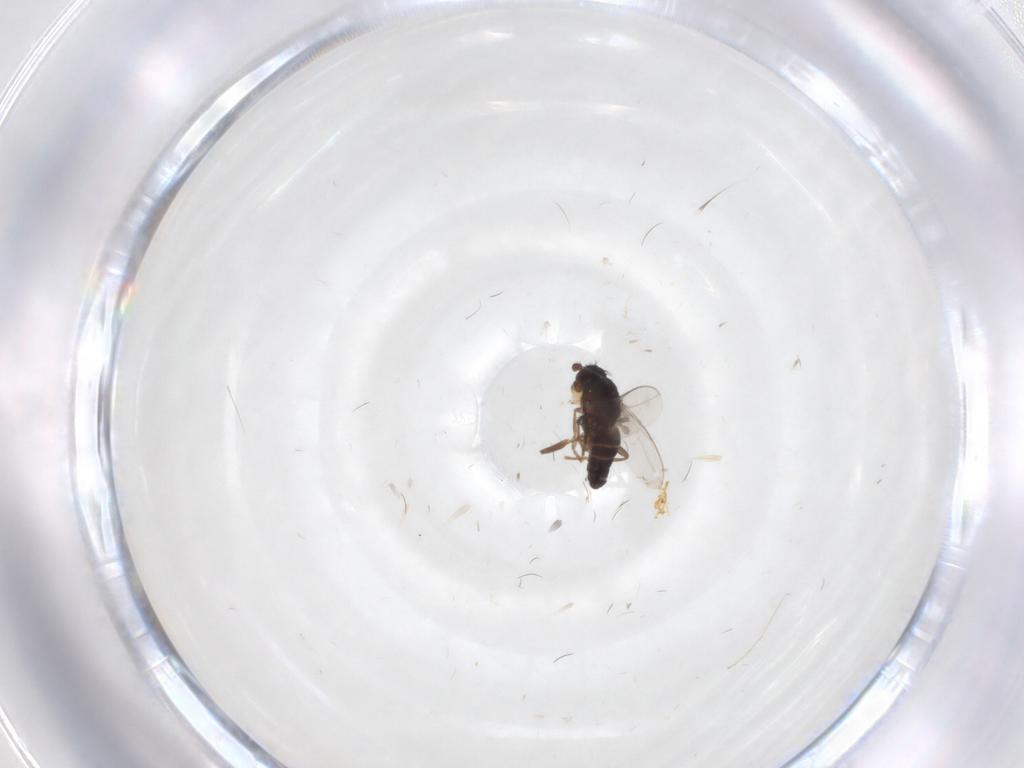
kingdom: Animalia
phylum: Arthropoda
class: Insecta
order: Diptera
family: Sphaeroceridae
